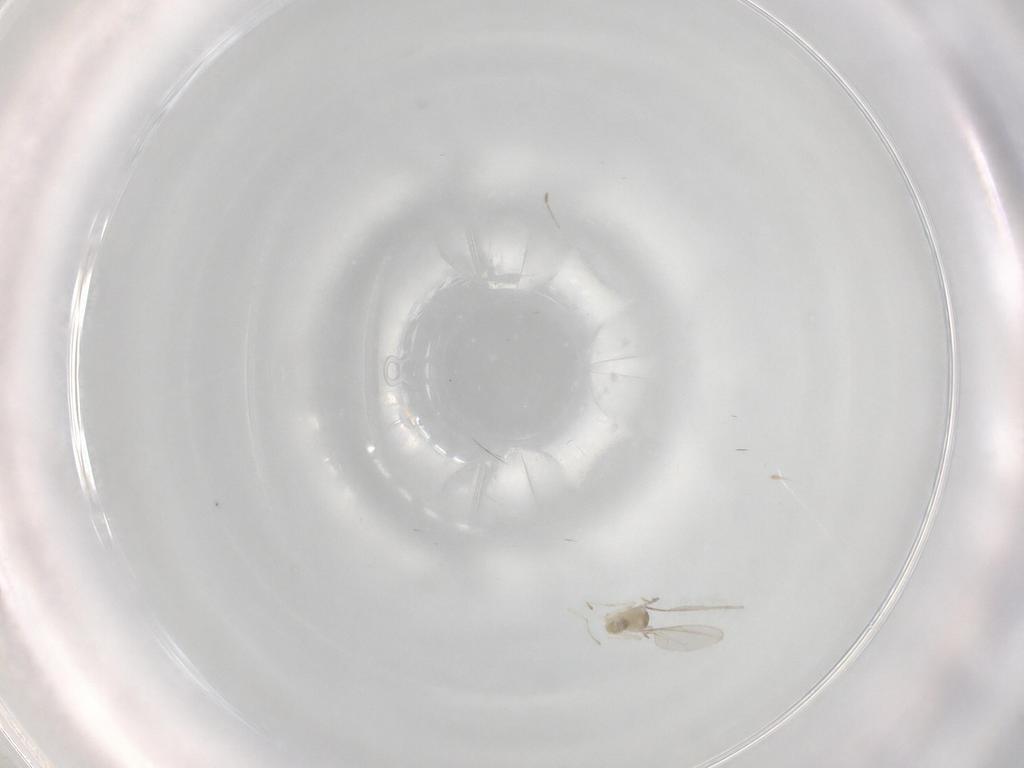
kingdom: Animalia
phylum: Arthropoda
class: Insecta
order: Diptera
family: Cecidomyiidae
